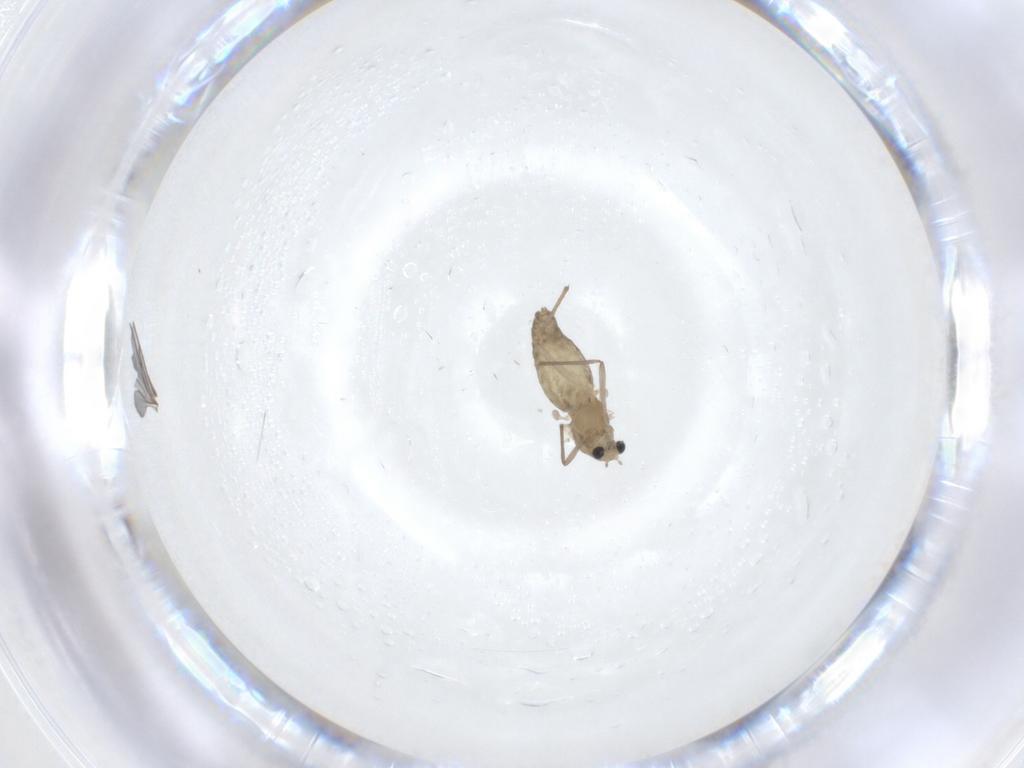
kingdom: Animalia
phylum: Arthropoda
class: Insecta
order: Diptera
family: Chironomidae
